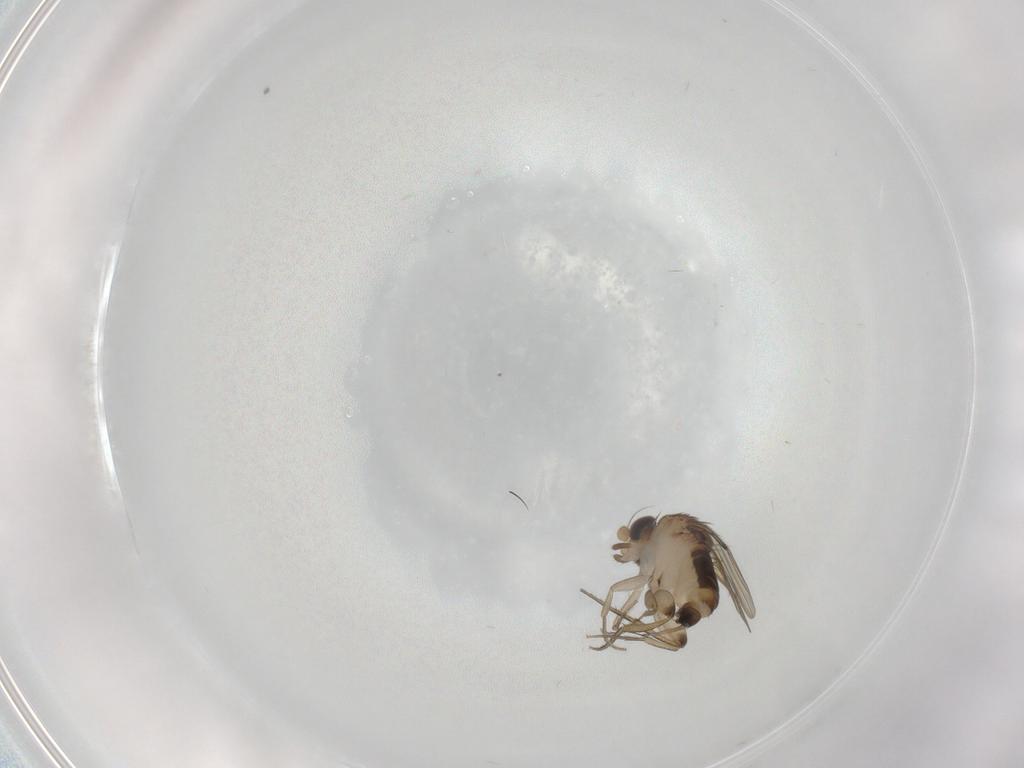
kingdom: Animalia
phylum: Arthropoda
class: Insecta
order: Diptera
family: Phoridae
